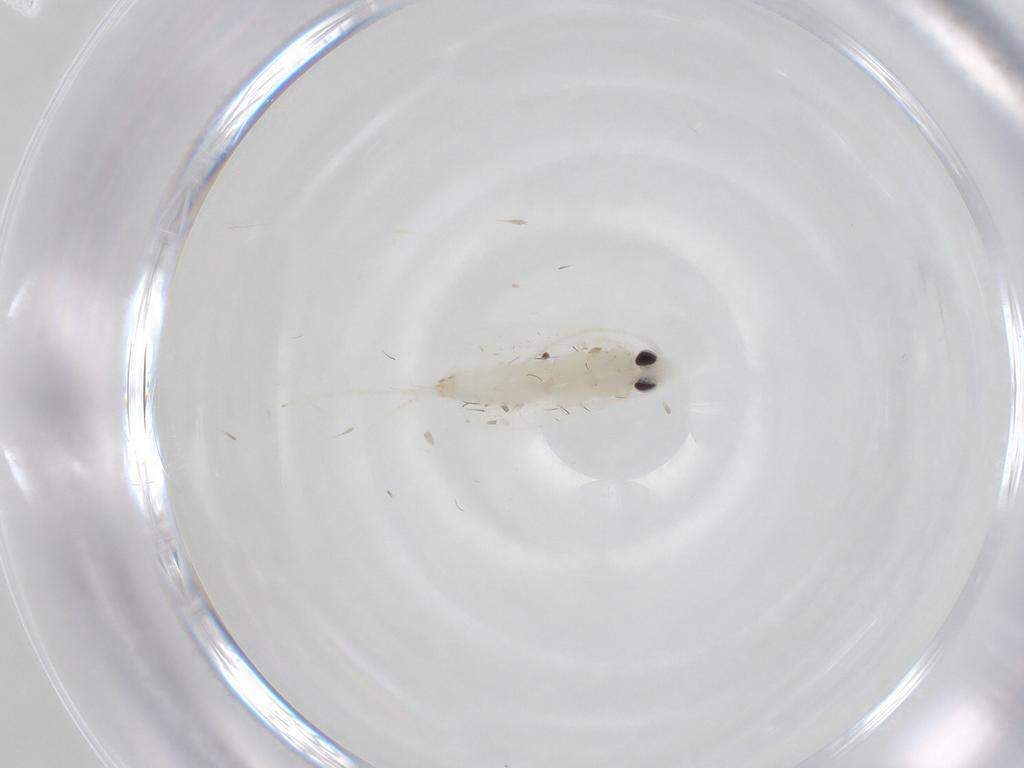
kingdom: Animalia
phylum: Arthropoda
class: Insecta
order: Lepidoptera
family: Gracillariidae
